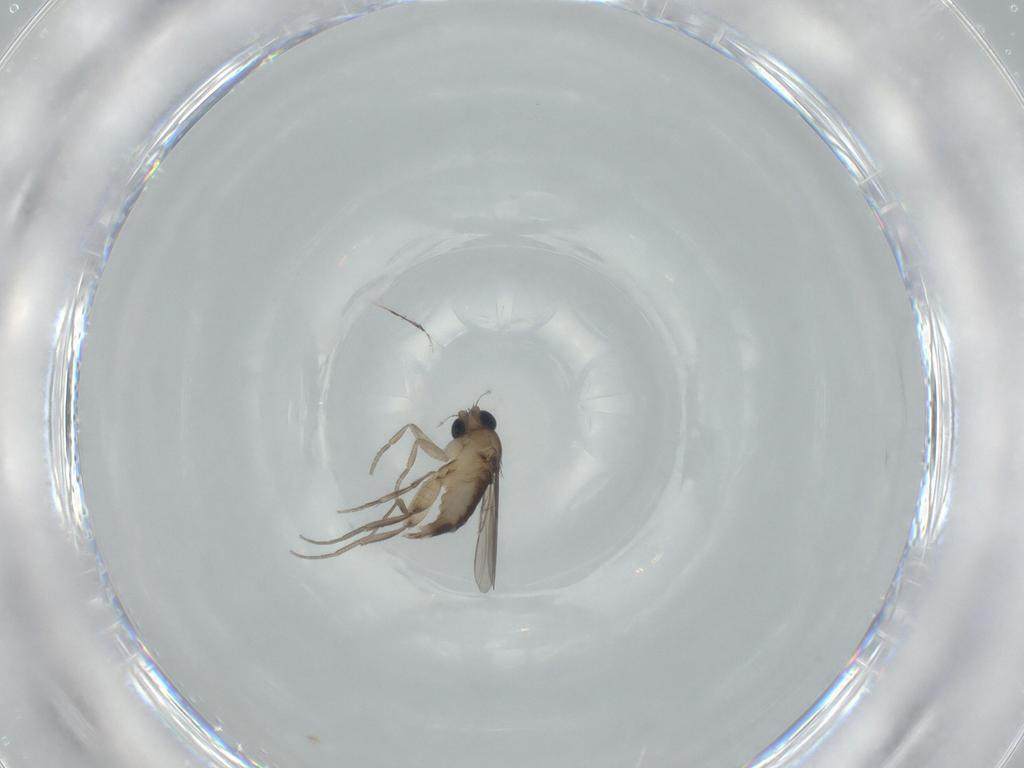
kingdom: Animalia
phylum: Arthropoda
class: Insecta
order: Diptera
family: Phoridae
